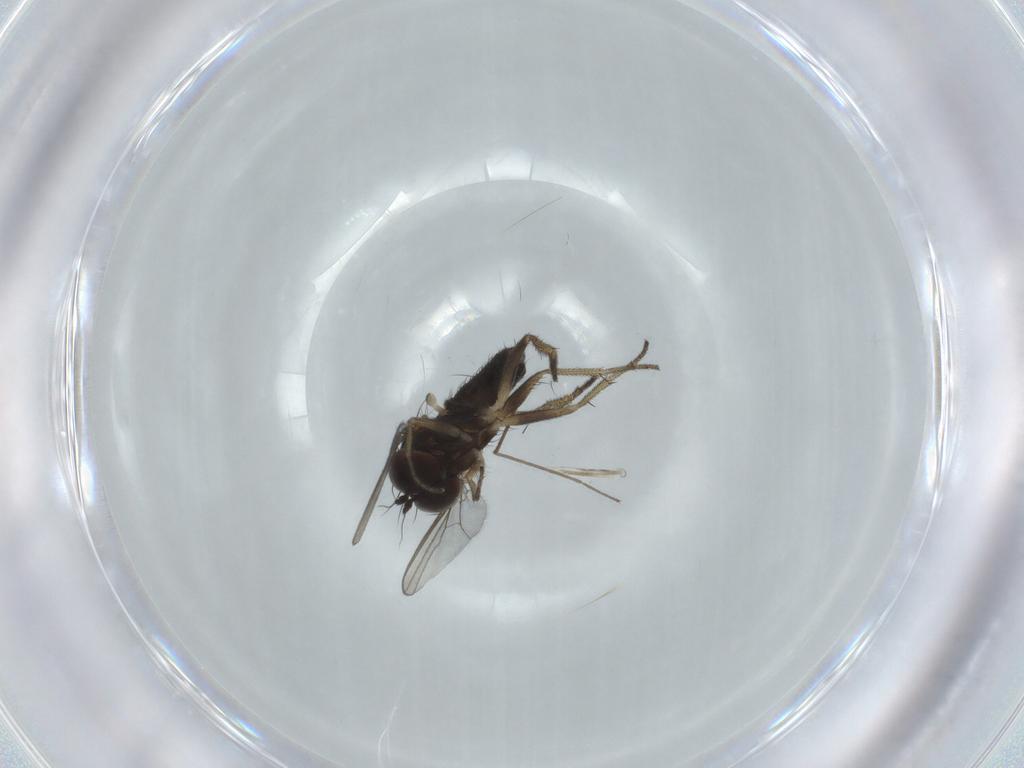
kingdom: Animalia
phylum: Arthropoda
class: Insecta
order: Diptera
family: Chironomidae
